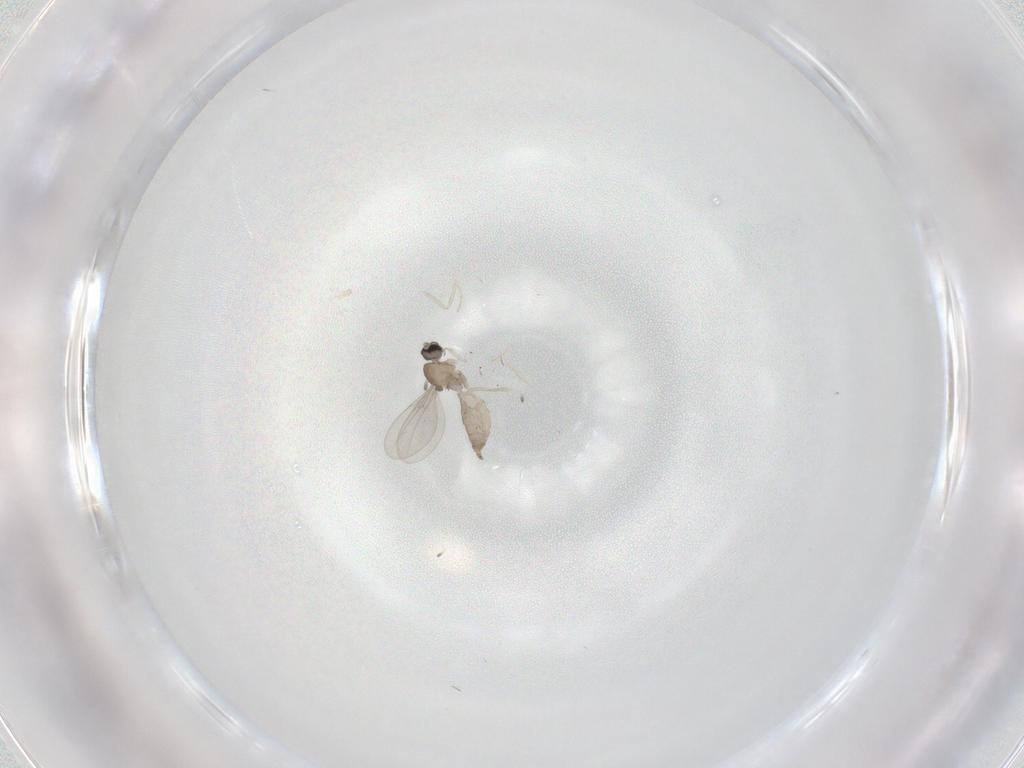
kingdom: Animalia
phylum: Arthropoda
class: Insecta
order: Diptera
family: Cecidomyiidae
